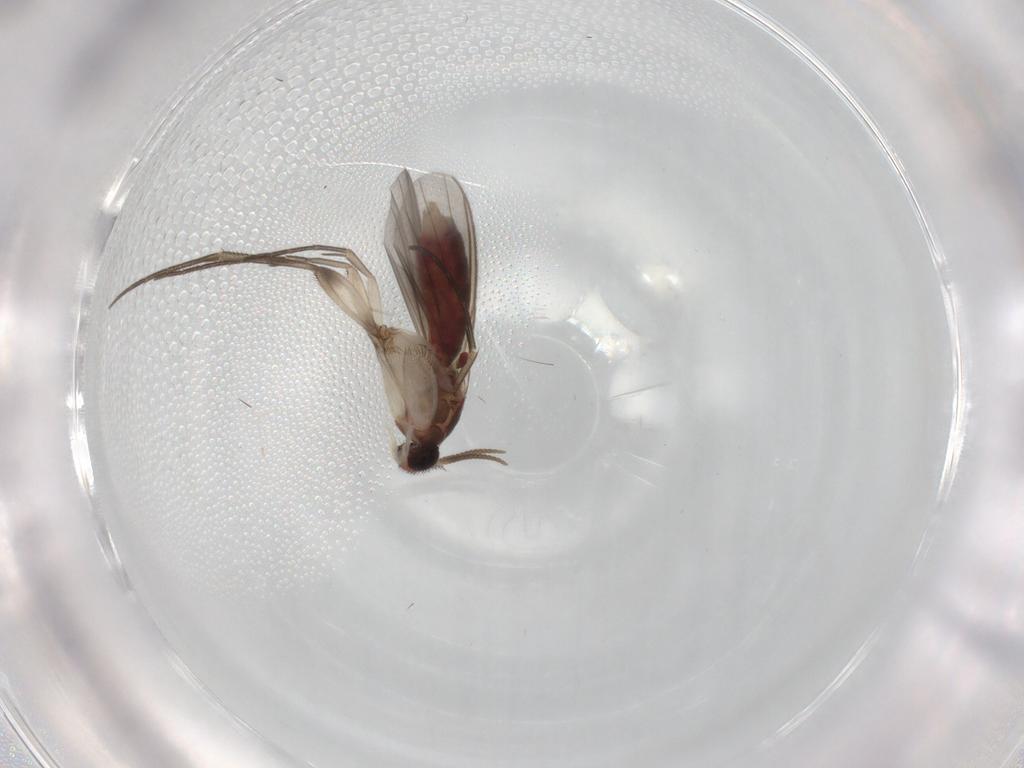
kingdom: Animalia
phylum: Arthropoda
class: Insecta
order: Diptera
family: Mycetophilidae
